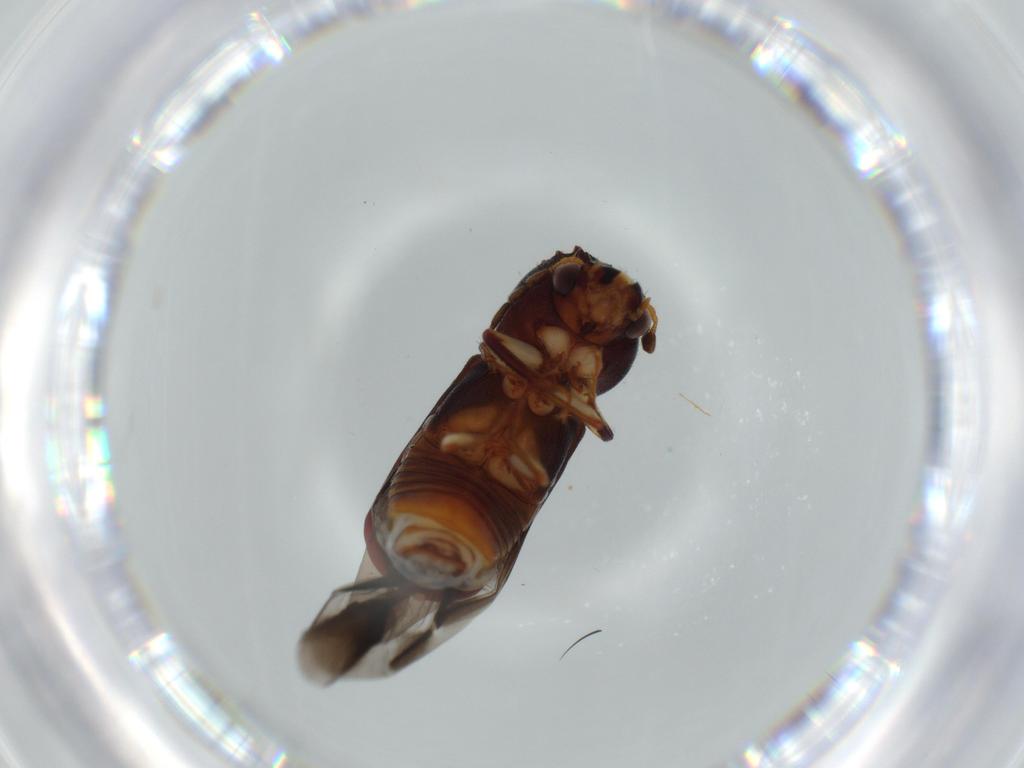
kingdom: Animalia
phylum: Arthropoda
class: Insecta
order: Coleoptera
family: Bostrichidae
